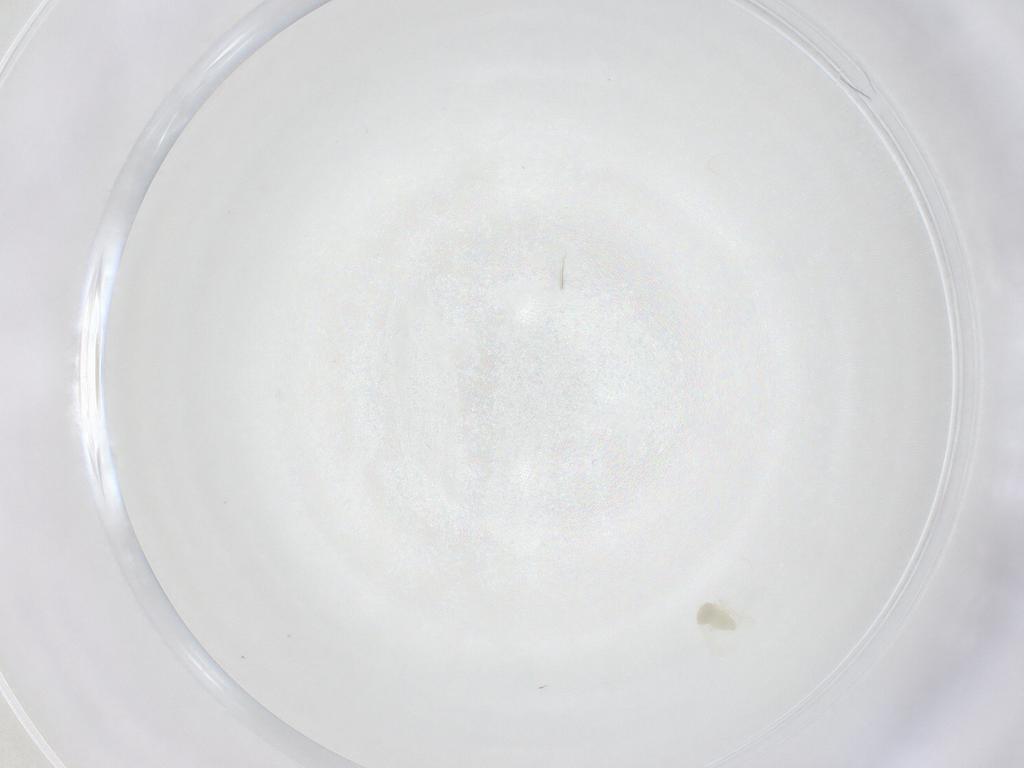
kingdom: Animalia
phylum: Arthropoda
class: Insecta
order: Hemiptera
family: Aleyrodidae
